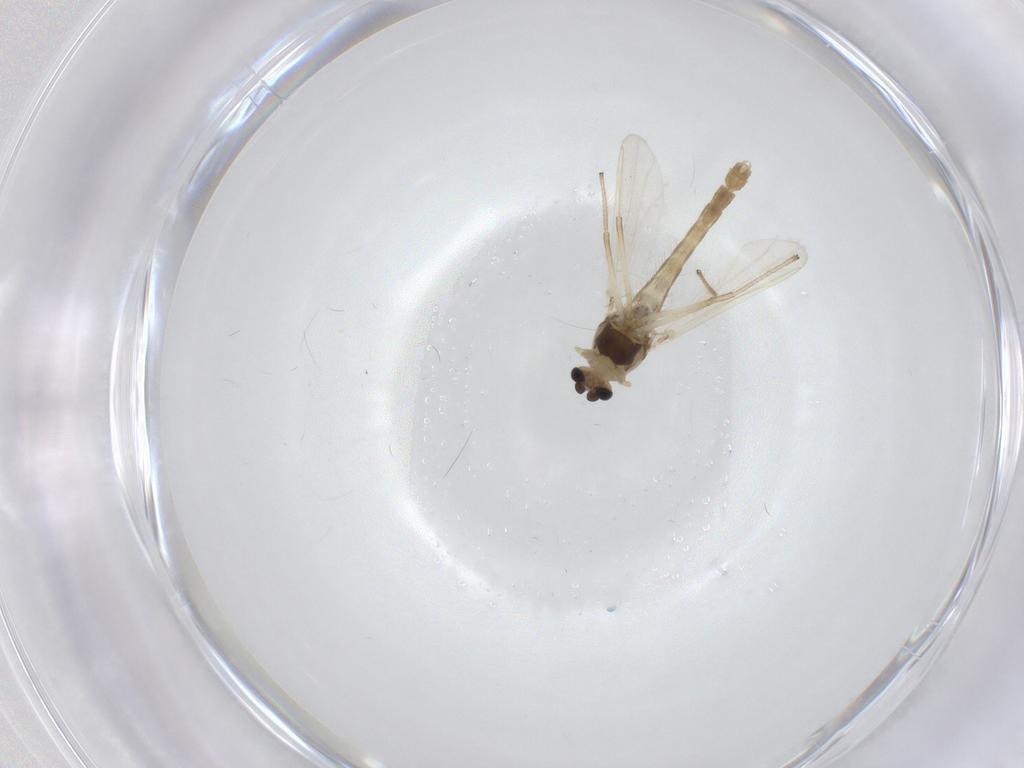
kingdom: Animalia
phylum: Arthropoda
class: Insecta
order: Diptera
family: Chironomidae
